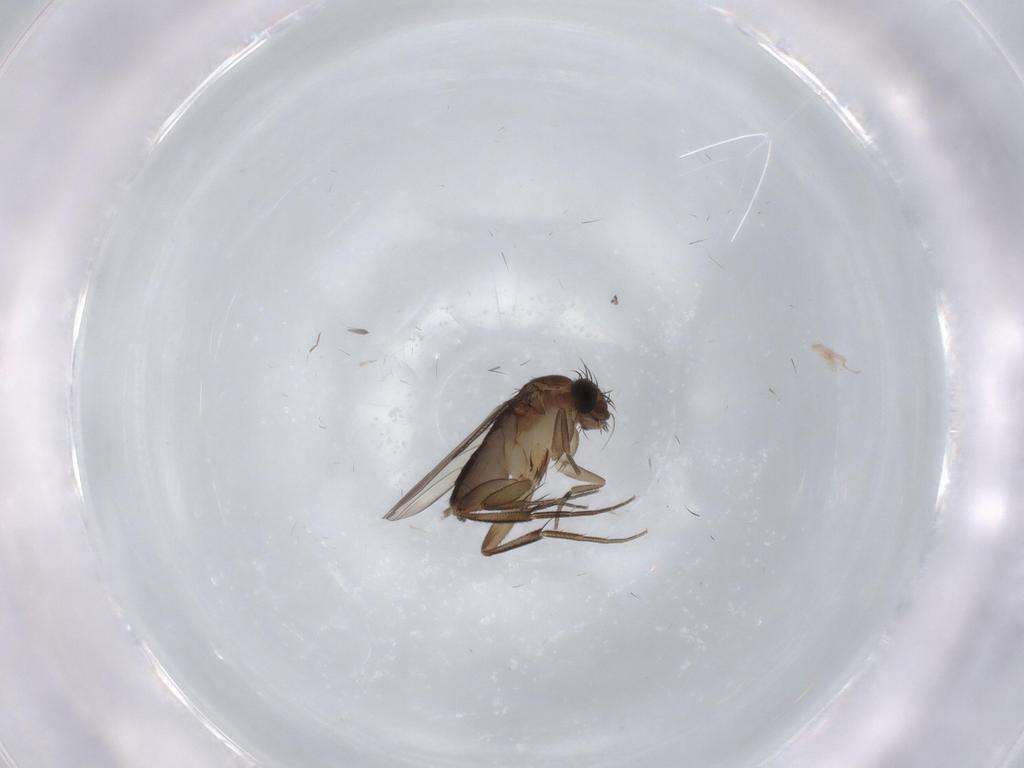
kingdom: Animalia
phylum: Arthropoda
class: Insecta
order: Diptera
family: Phoridae
